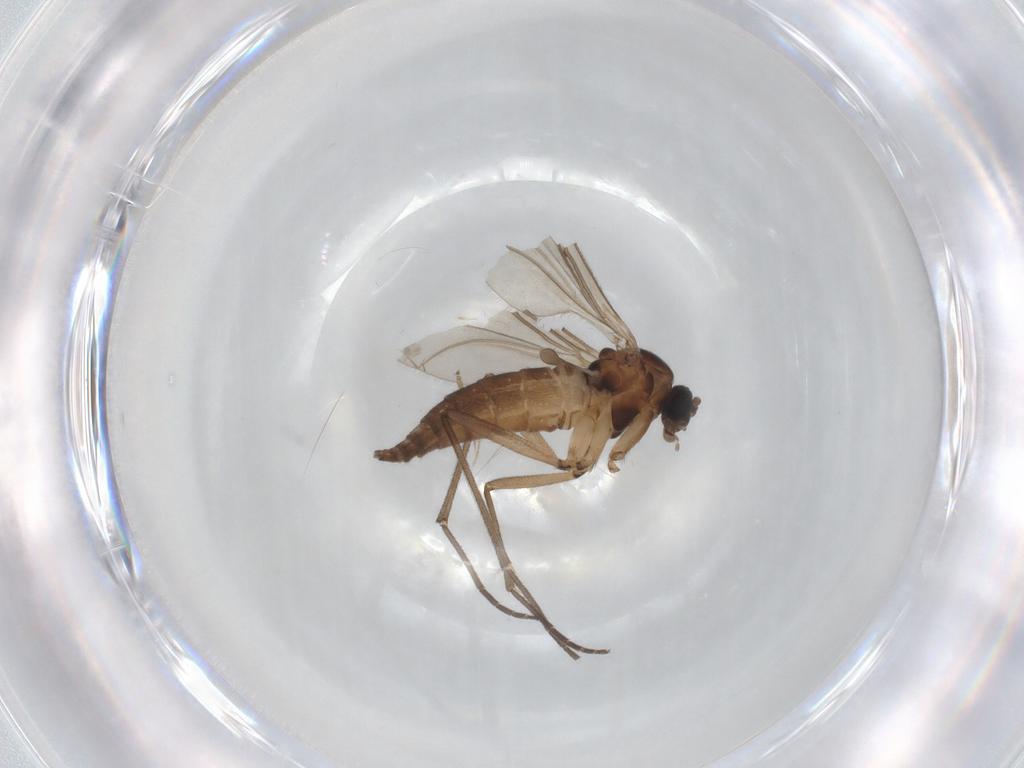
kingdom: Animalia
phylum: Arthropoda
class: Insecta
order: Diptera
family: Sciaridae
